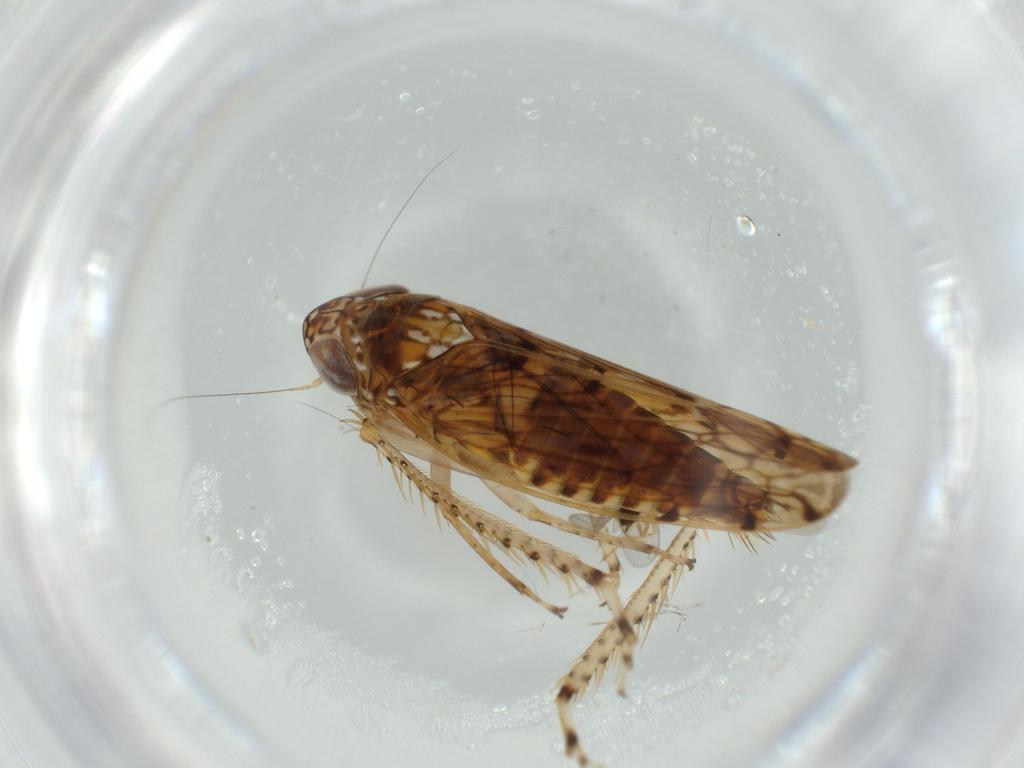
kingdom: Animalia
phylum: Arthropoda
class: Insecta
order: Hemiptera
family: Cicadellidae
